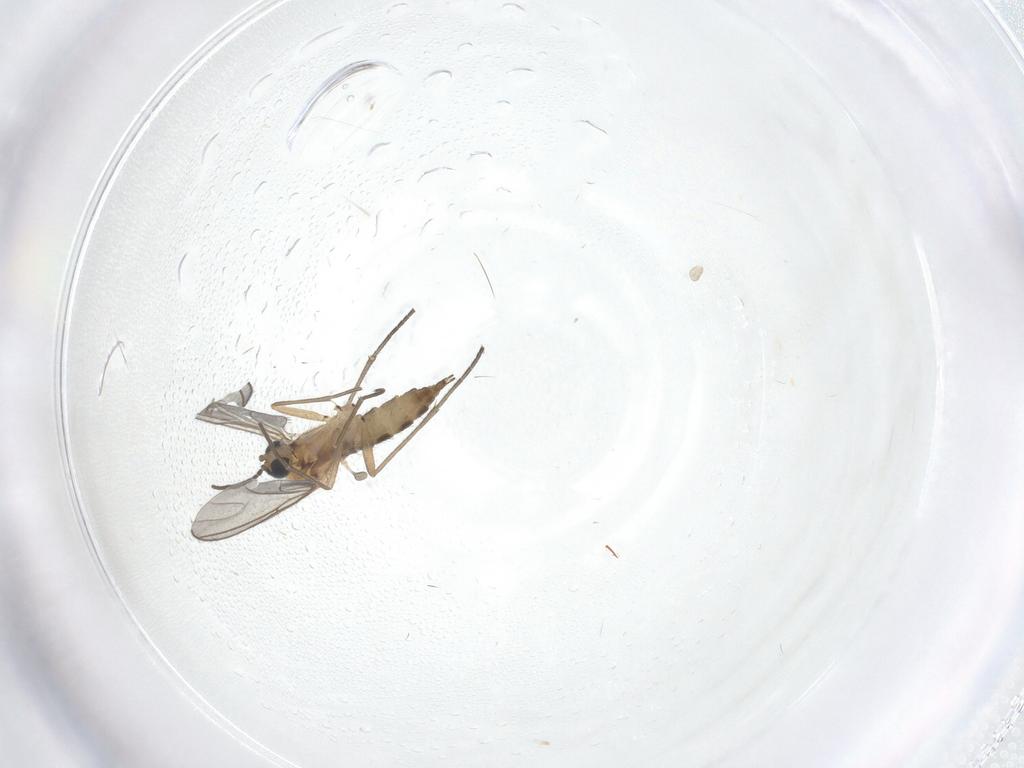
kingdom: Animalia
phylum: Arthropoda
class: Insecta
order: Diptera
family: Sciaridae
